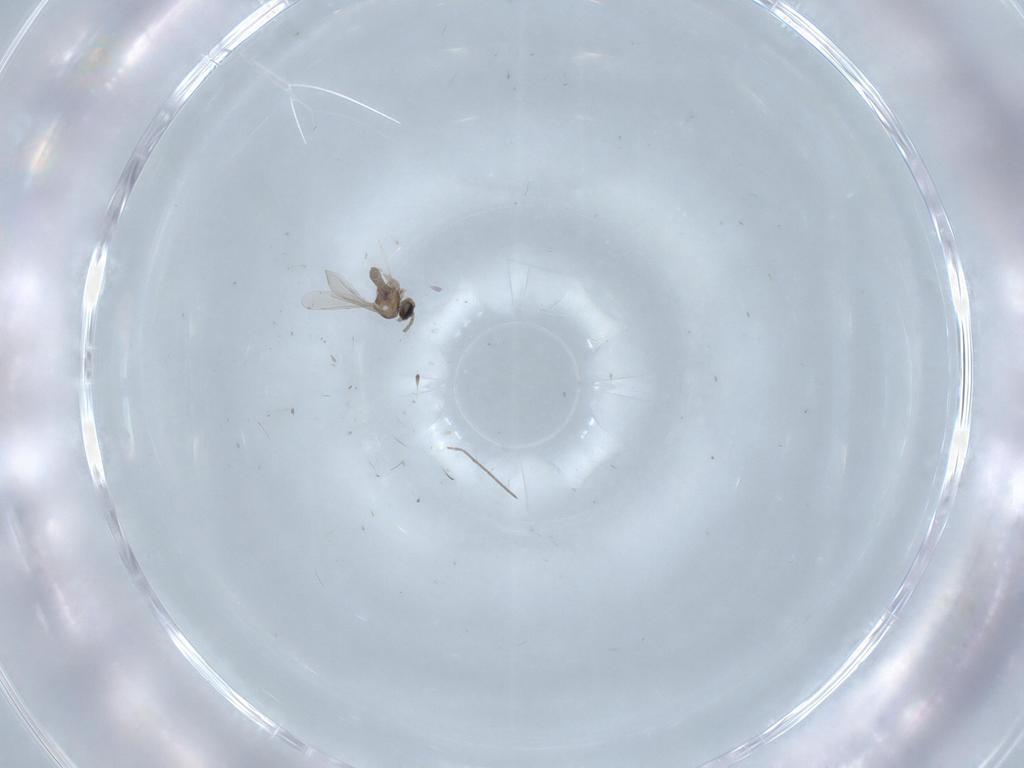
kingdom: Animalia
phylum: Arthropoda
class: Insecta
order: Diptera
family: Cecidomyiidae
